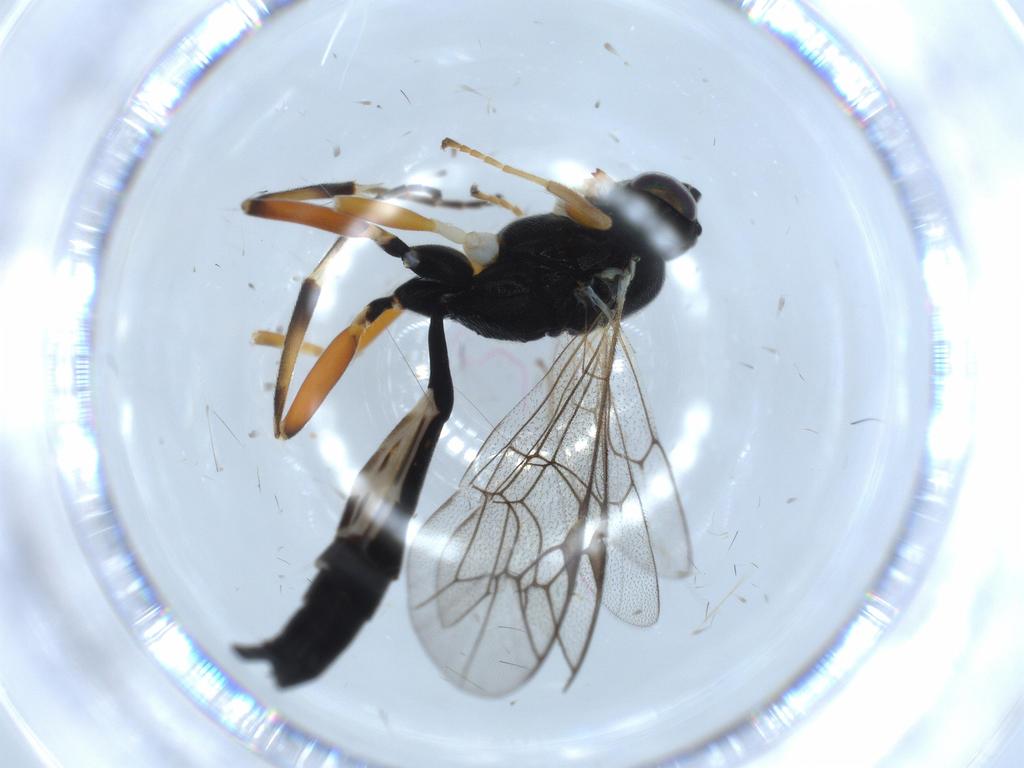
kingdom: Animalia
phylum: Arthropoda
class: Insecta
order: Hymenoptera
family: Ichneumonidae
